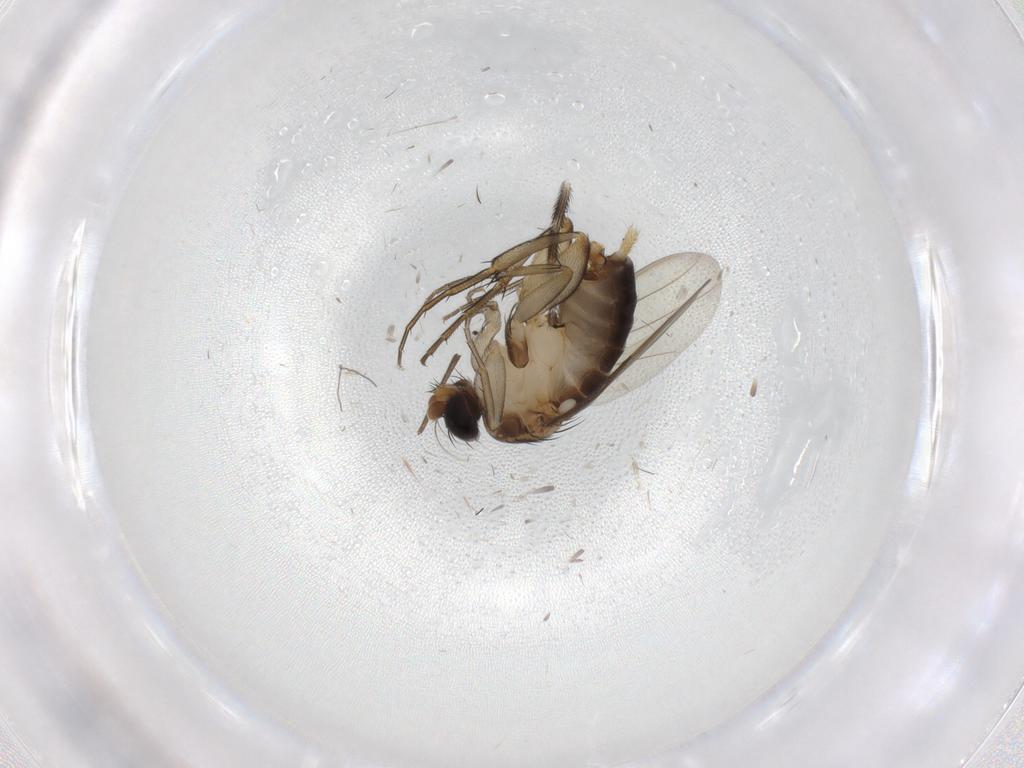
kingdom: Animalia
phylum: Arthropoda
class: Insecta
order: Diptera
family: Phoridae
